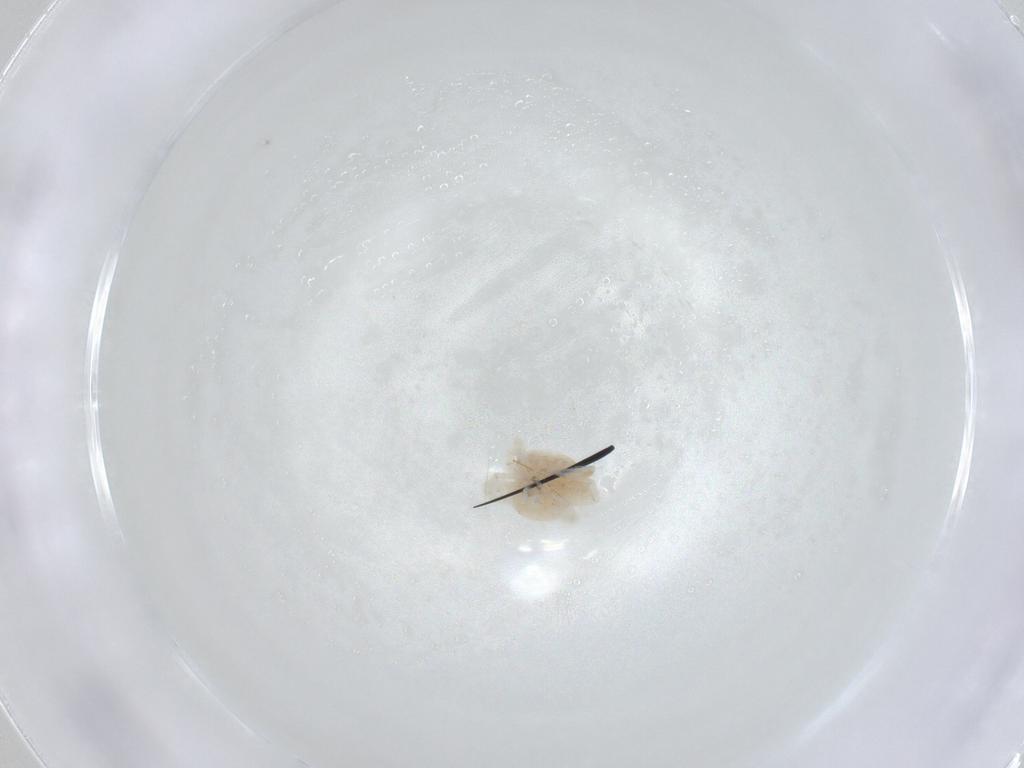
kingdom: Animalia
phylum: Arthropoda
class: Arachnida
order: Trombidiformes
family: Anystidae
